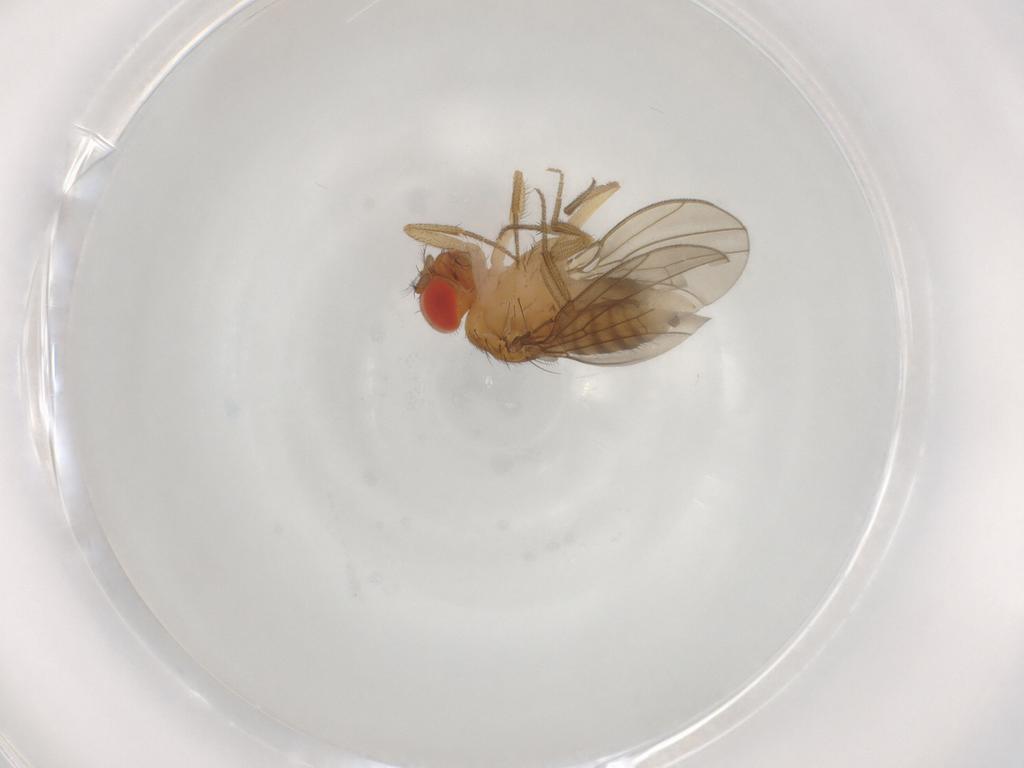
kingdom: Animalia
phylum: Arthropoda
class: Insecta
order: Diptera
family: Drosophilidae
